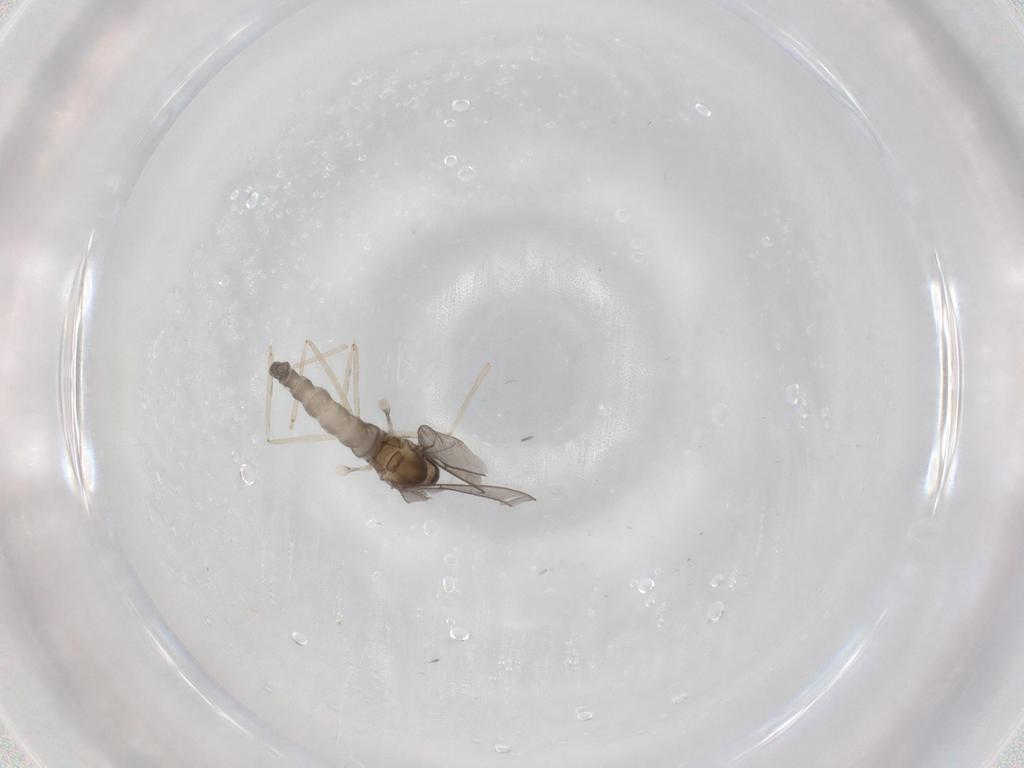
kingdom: Animalia
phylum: Arthropoda
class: Insecta
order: Diptera
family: Cecidomyiidae
